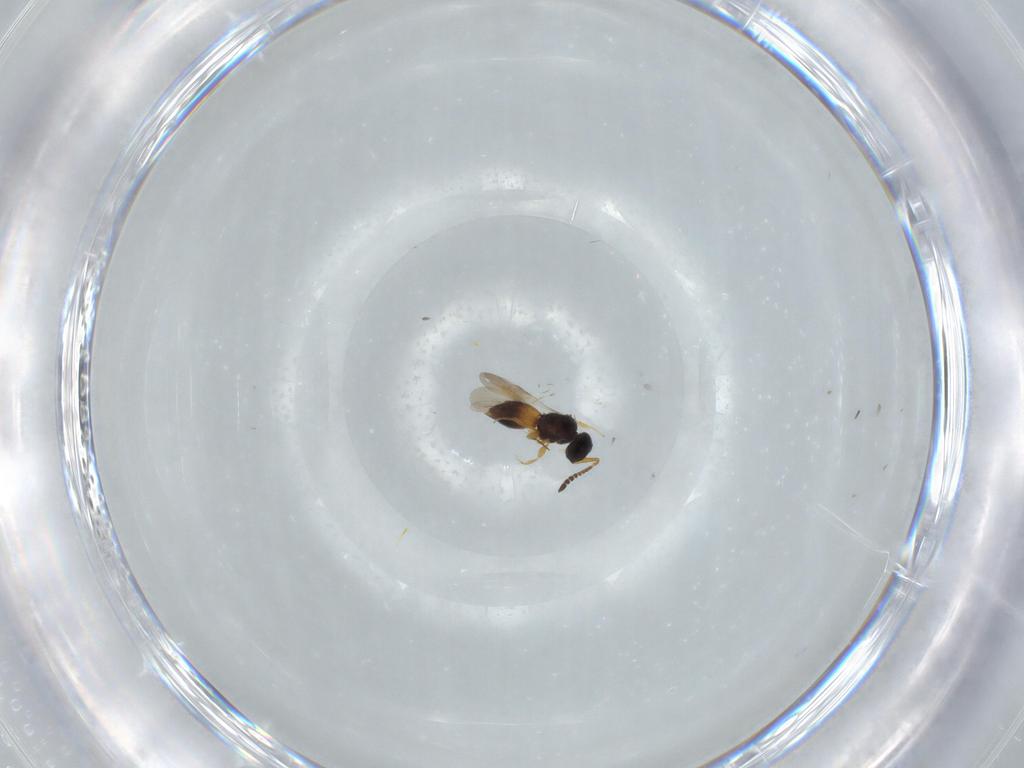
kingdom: Animalia
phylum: Arthropoda
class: Insecta
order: Hymenoptera
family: Ceraphronidae
